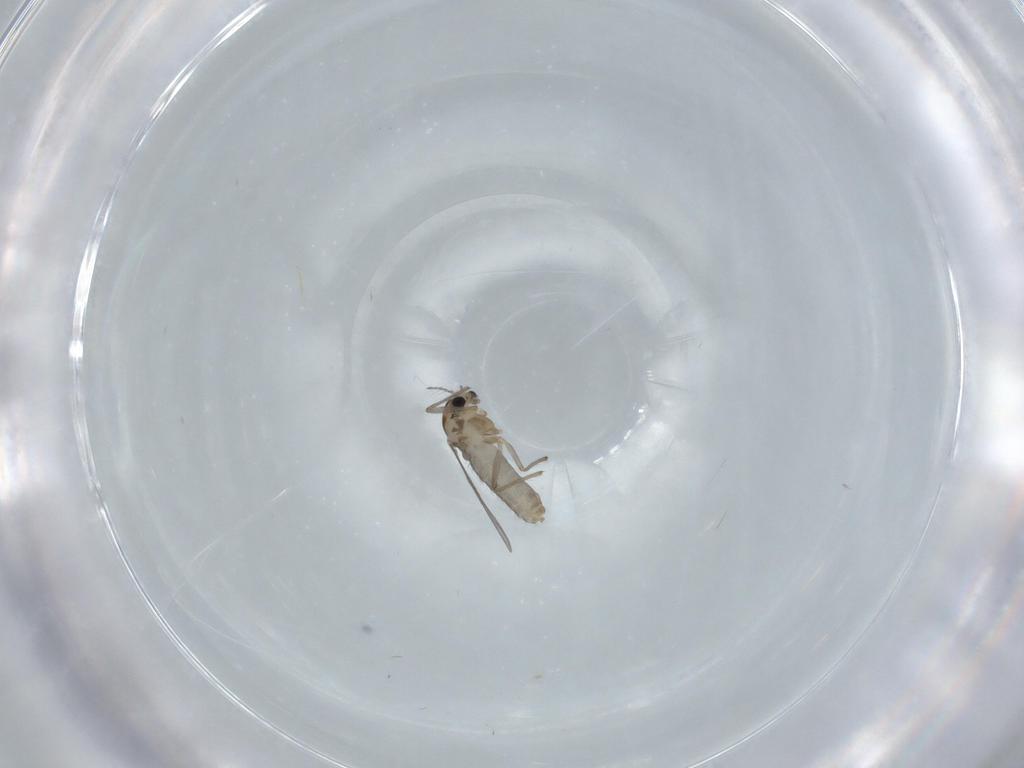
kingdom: Animalia
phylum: Arthropoda
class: Insecta
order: Diptera
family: Chironomidae
